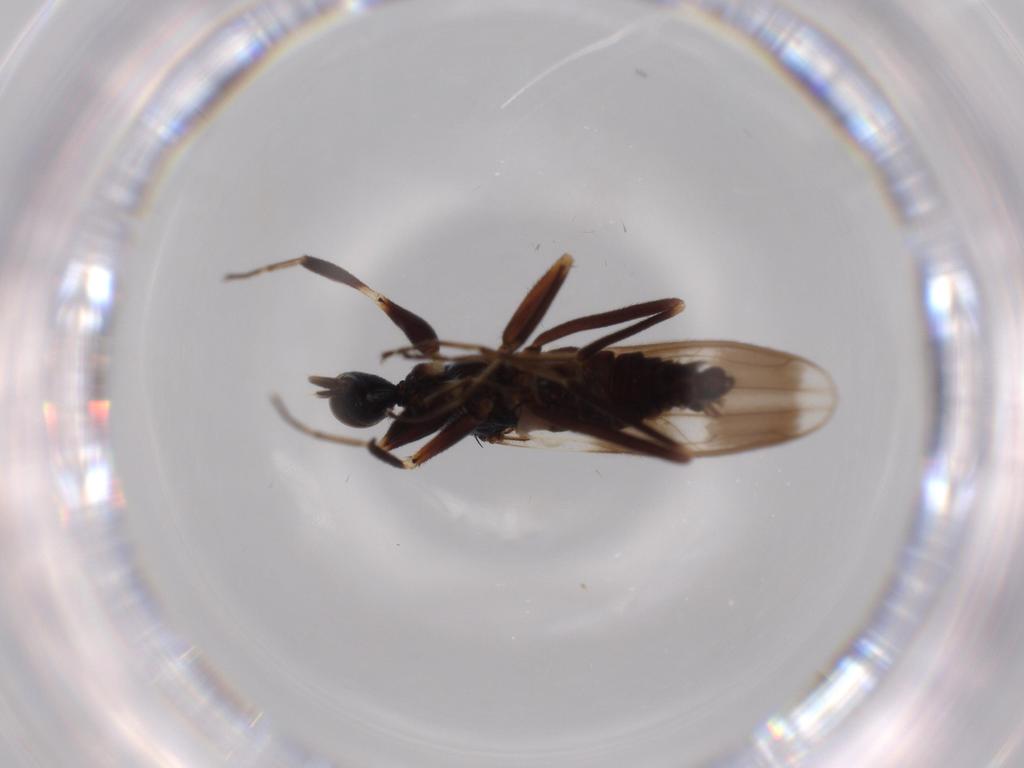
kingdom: Animalia
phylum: Arthropoda
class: Insecta
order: Diptera
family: Hybotidae
